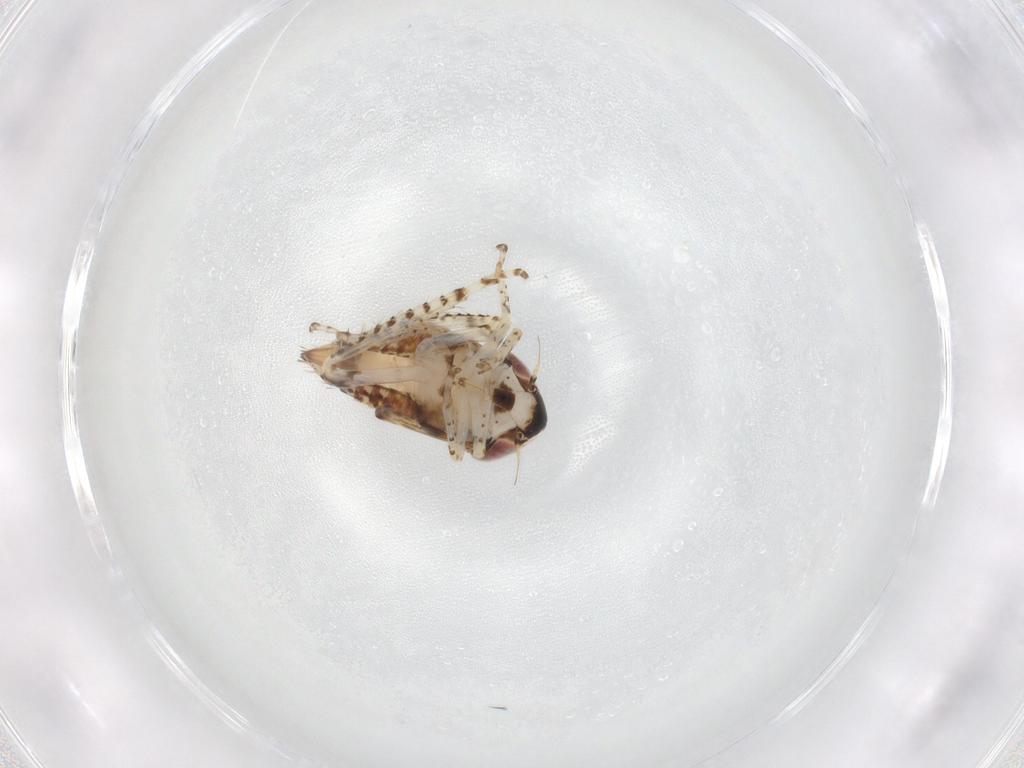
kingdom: Animalia
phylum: Arthropoda
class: Insecta
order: Hemiptera
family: Cicadellidae
